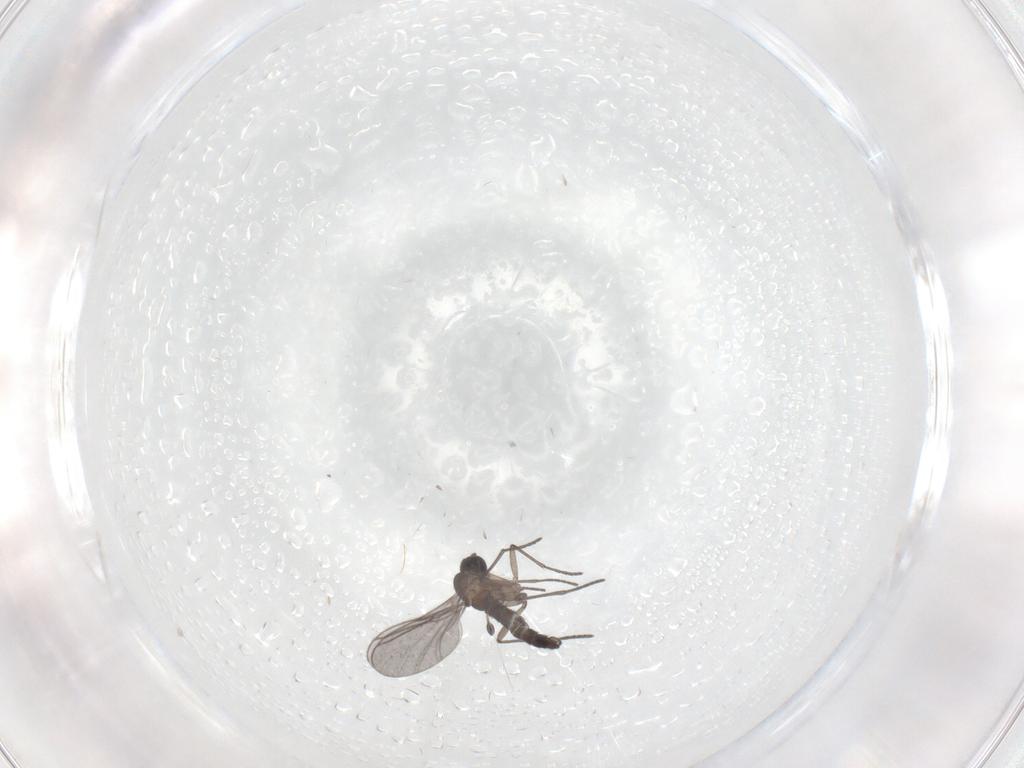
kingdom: Animalia
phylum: Arthropoda
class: Insecta
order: Diptera
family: Sciaridae
